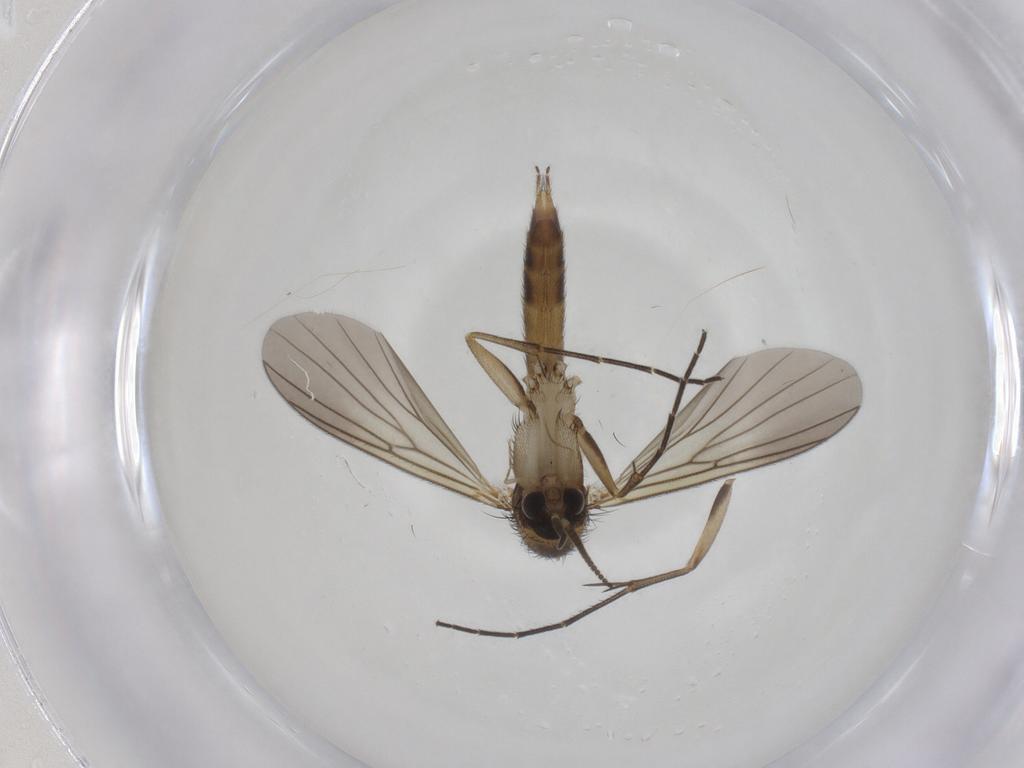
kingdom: Animalia
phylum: Arthropoda
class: Insecta
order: Diptera
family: Mycetophilidae
